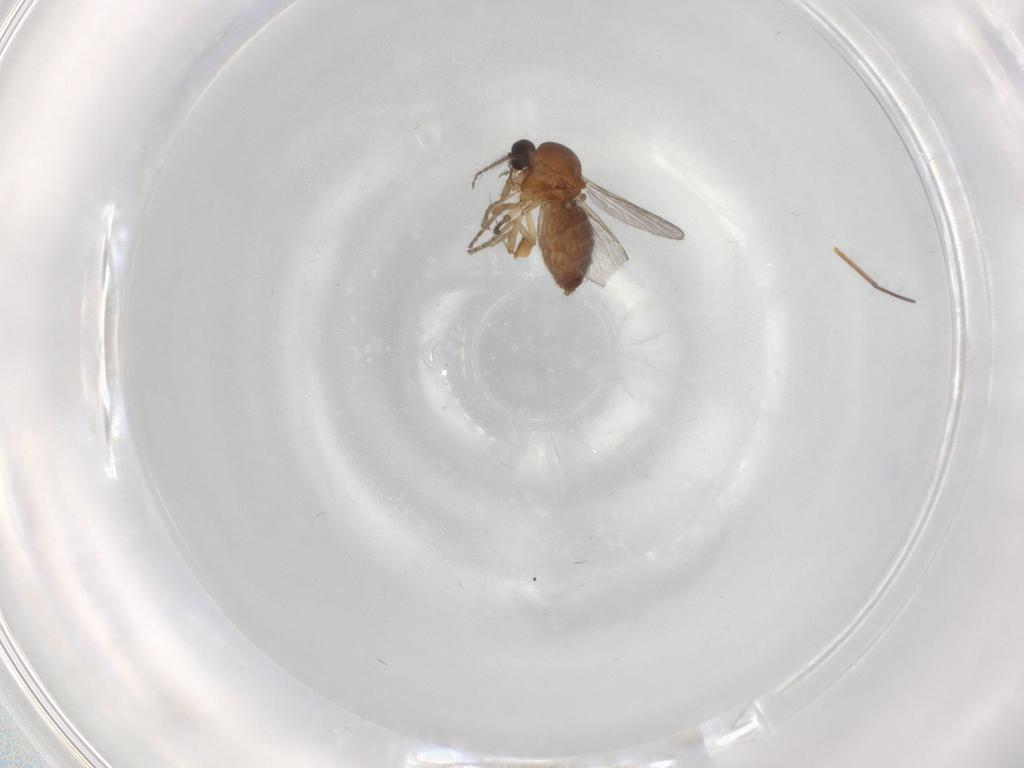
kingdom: Animalia
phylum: Arthropoda
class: Insecta
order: Diptera
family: Ceratopogonidae
